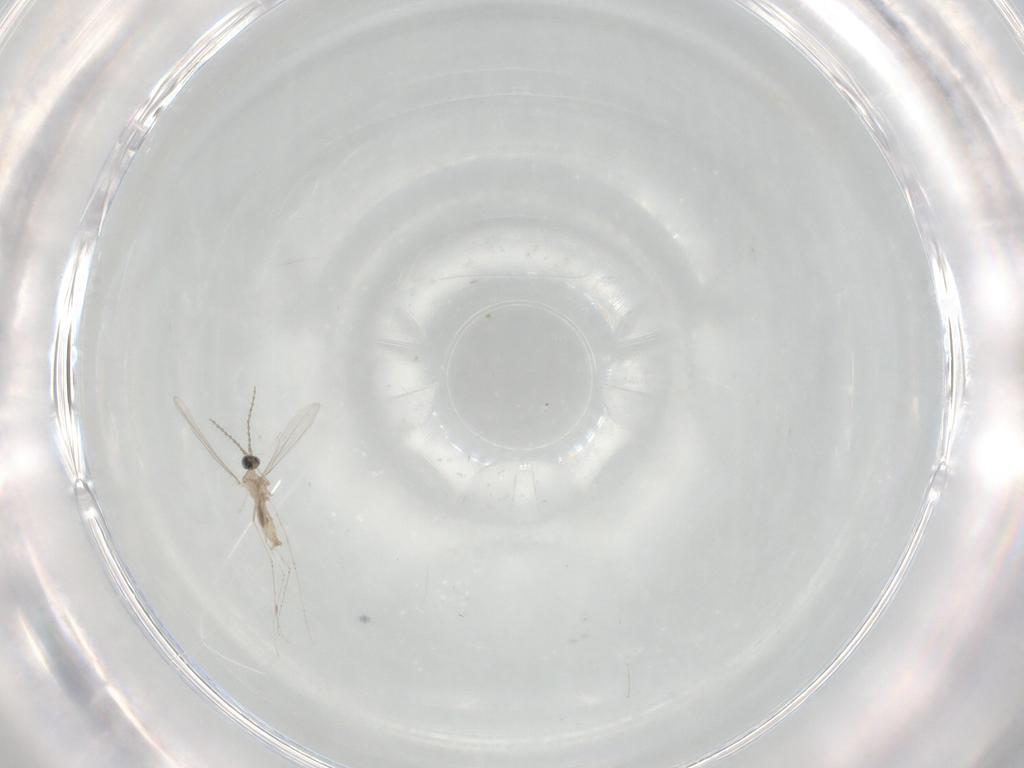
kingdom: Animalia
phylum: Arthropoda
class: Insecta
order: Diptera
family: Cecidomyiidae
